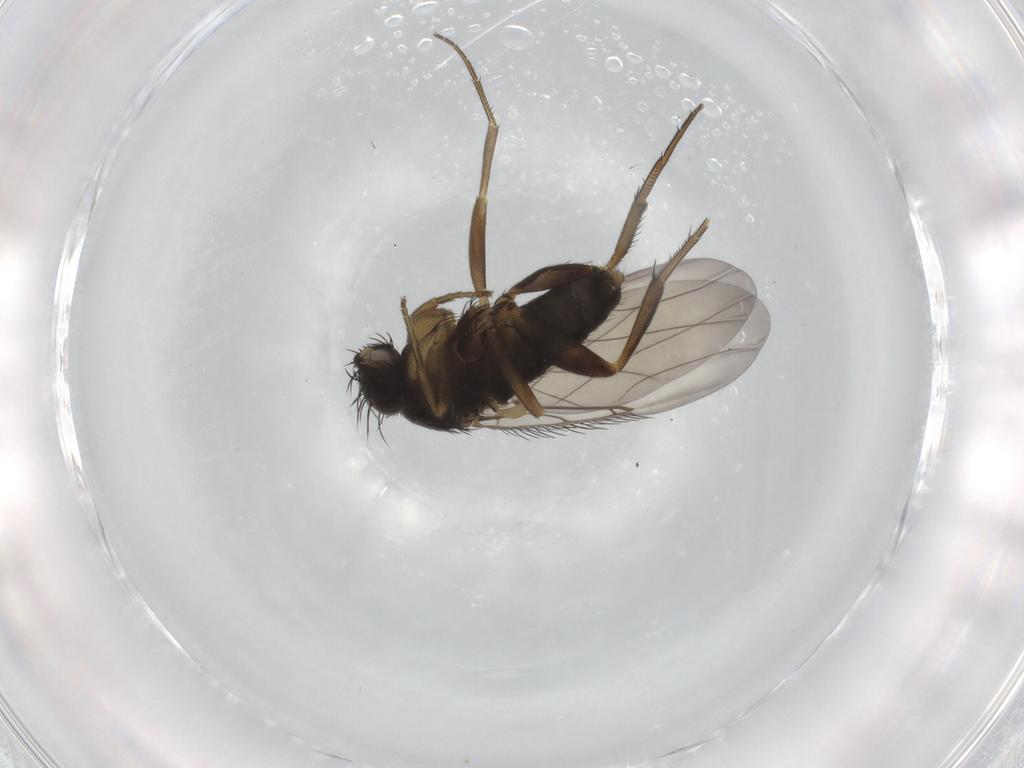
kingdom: Animalia
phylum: Arthropoda
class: Insecta
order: Diptera
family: Phoridae
